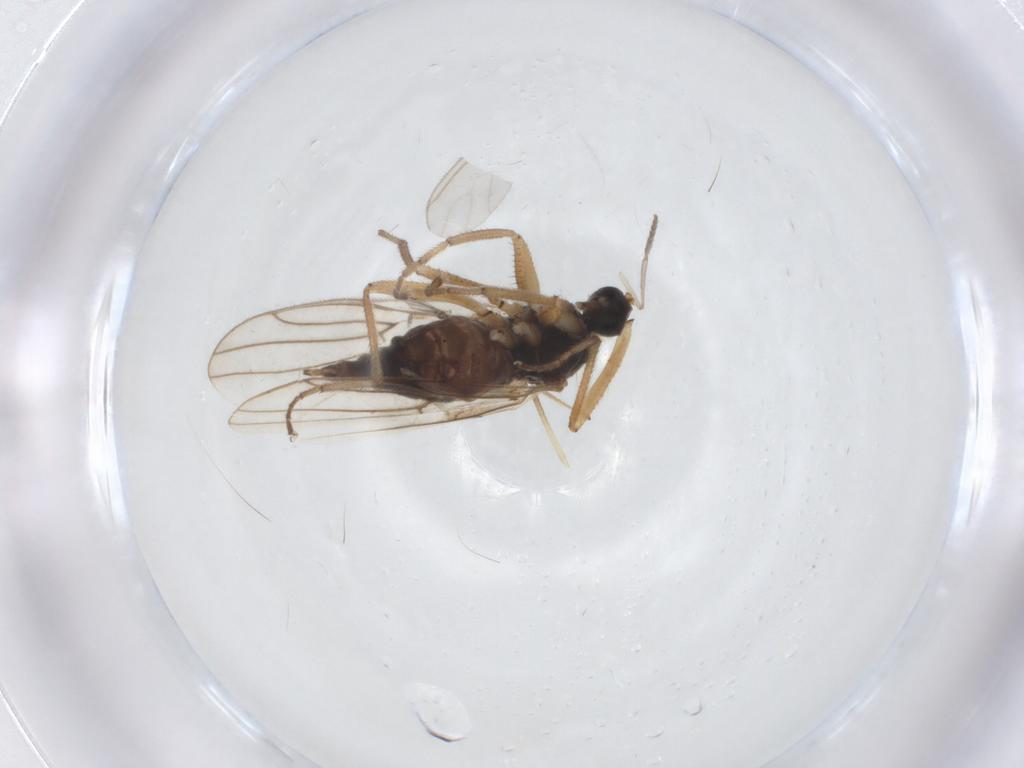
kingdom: Animalia
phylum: Arthropoda
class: Insecta
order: Diptera
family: Hybotidae
